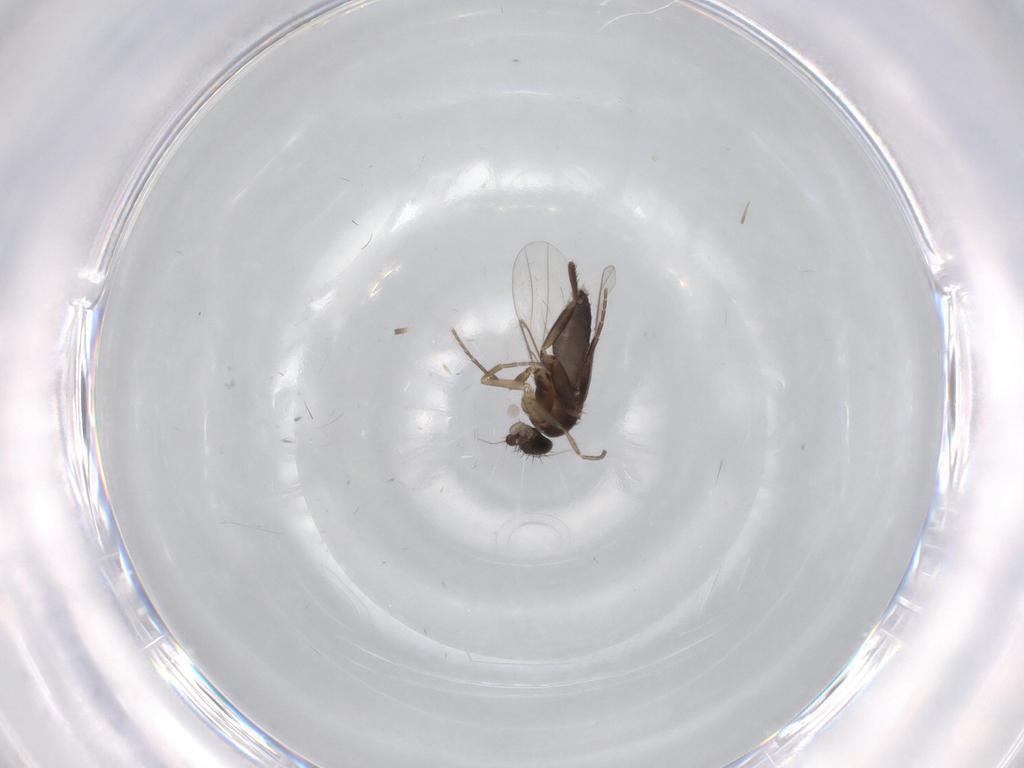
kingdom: Animalia
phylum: Arthropoda
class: Insecta
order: Diptera
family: Phoridae
